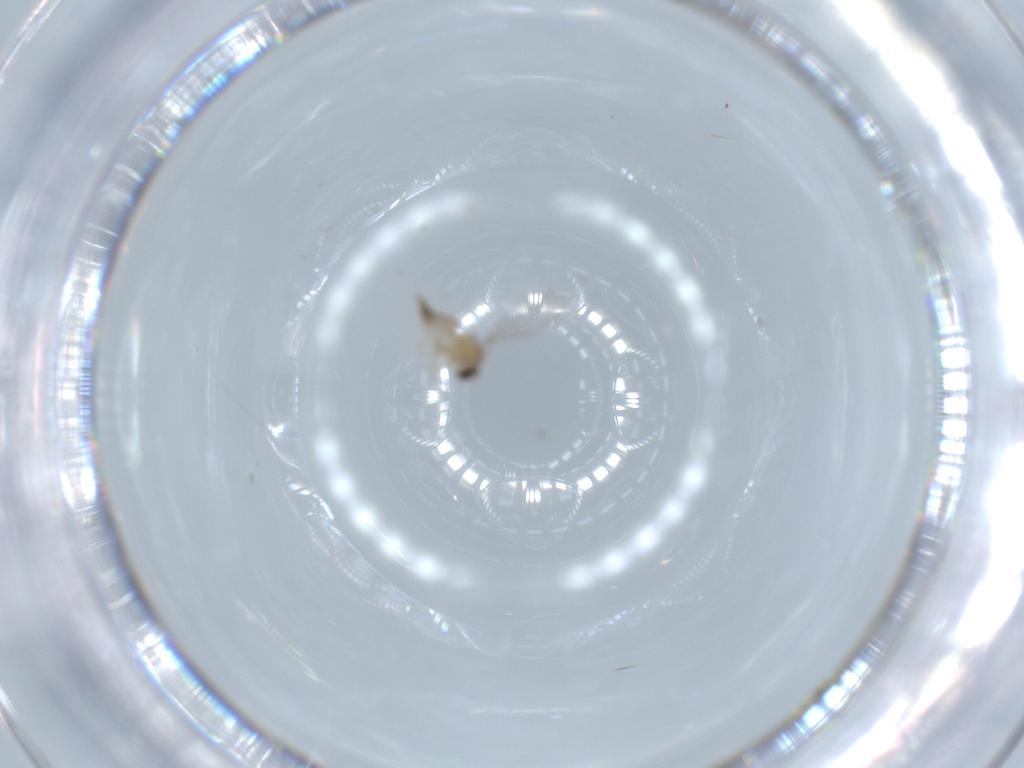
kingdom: Animalia
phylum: Arthropoda
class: Insecta
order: Diptera
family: Cecidomyiidae
